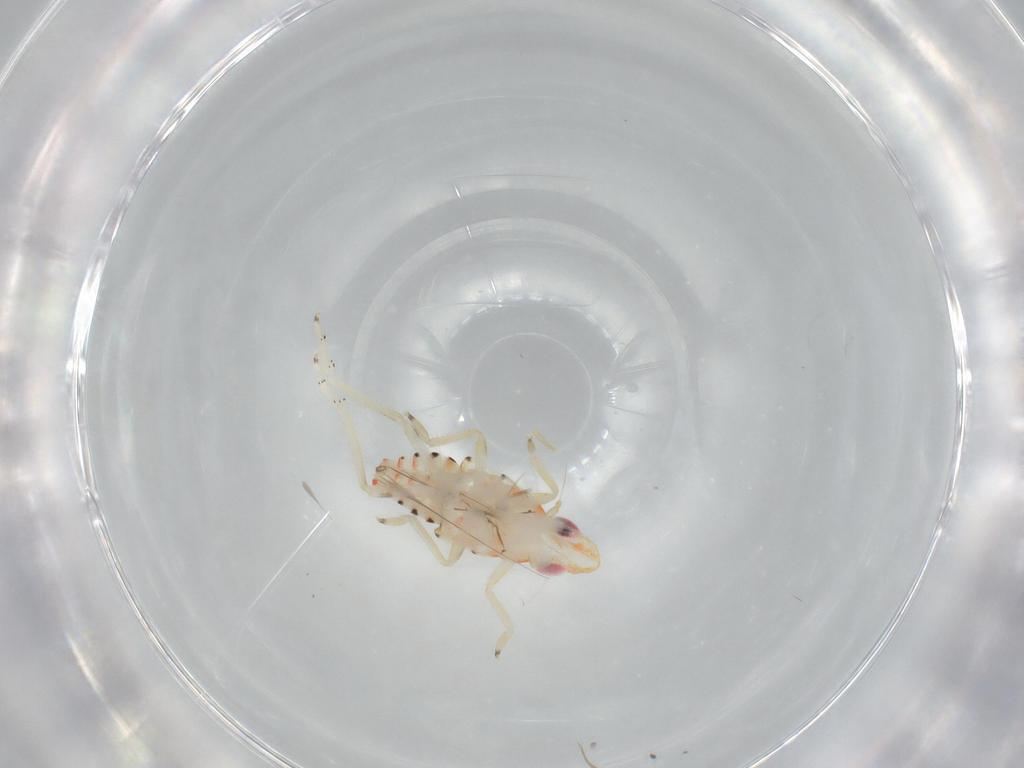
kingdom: Animalia
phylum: Arthropoda
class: Insecta
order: Hemiptera
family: Tropiduchidae
